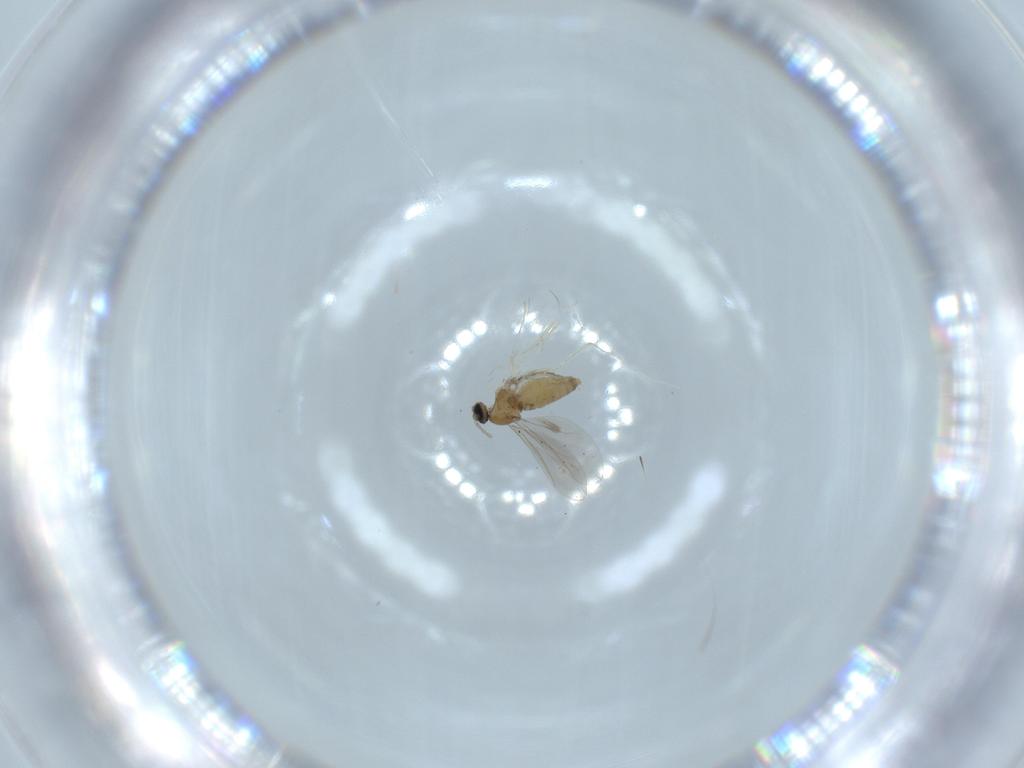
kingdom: Animalia
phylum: Arthropoda
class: Insecta
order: Diptera
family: Cecidomyiidae
